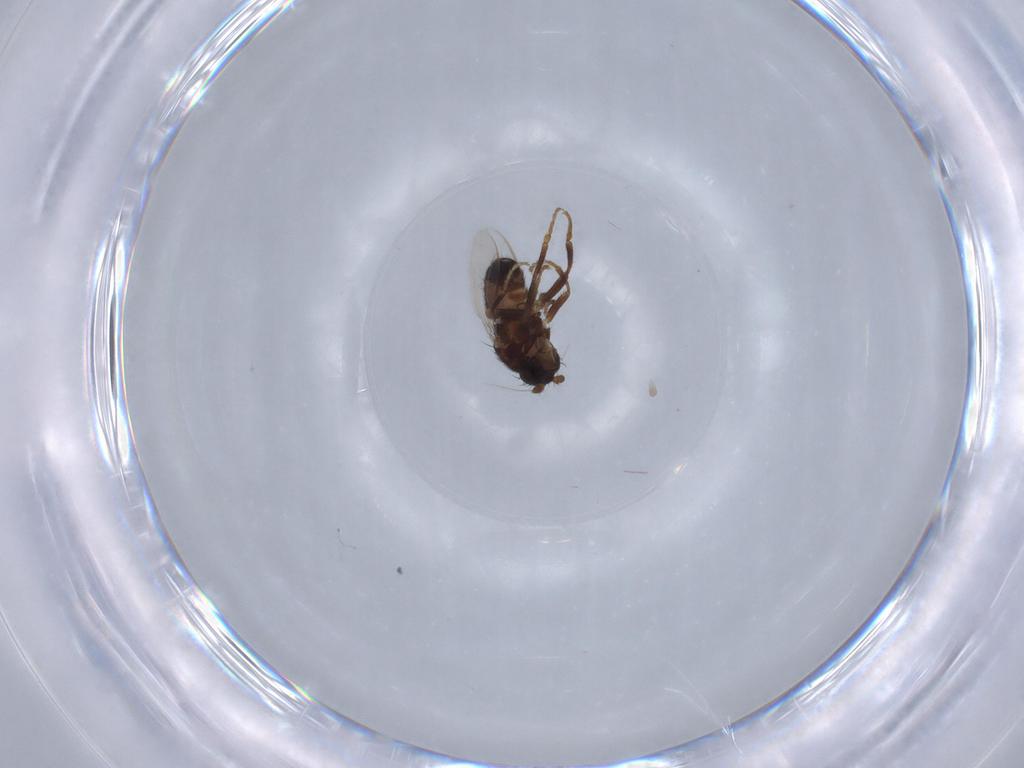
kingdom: Animalia
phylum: Arthropoda
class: Insecta
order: Diptera
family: Sphaeroceridae
